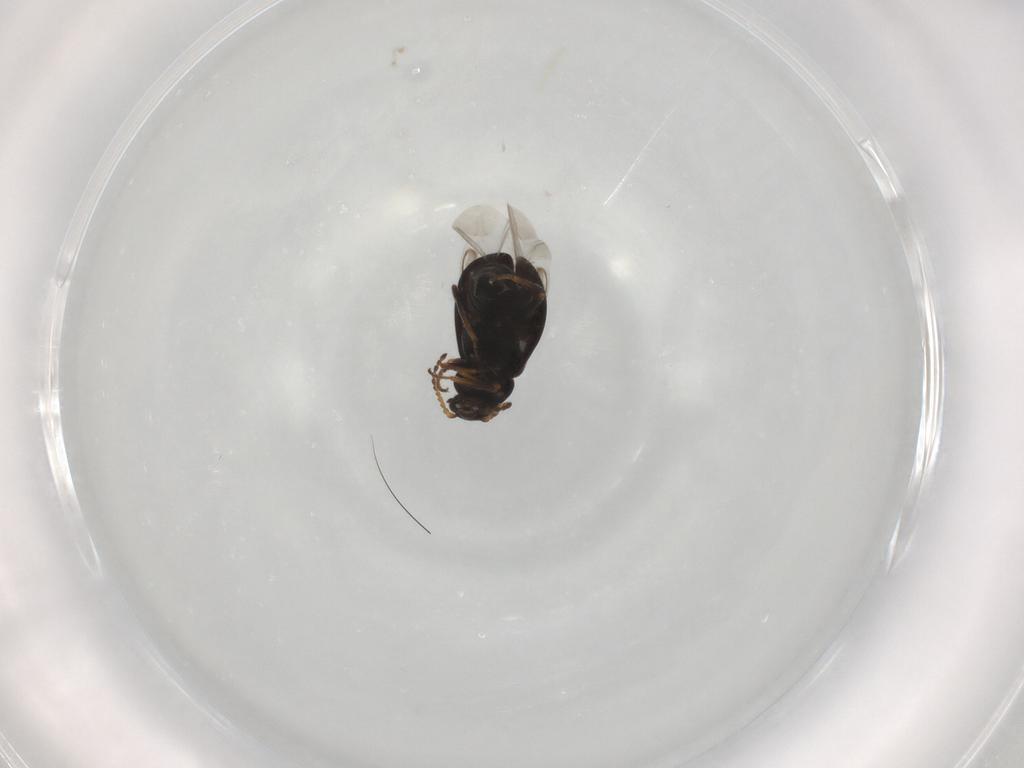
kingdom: Animalia
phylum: Arthropoda
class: Insecta
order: Coleoptera
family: Melyridae
